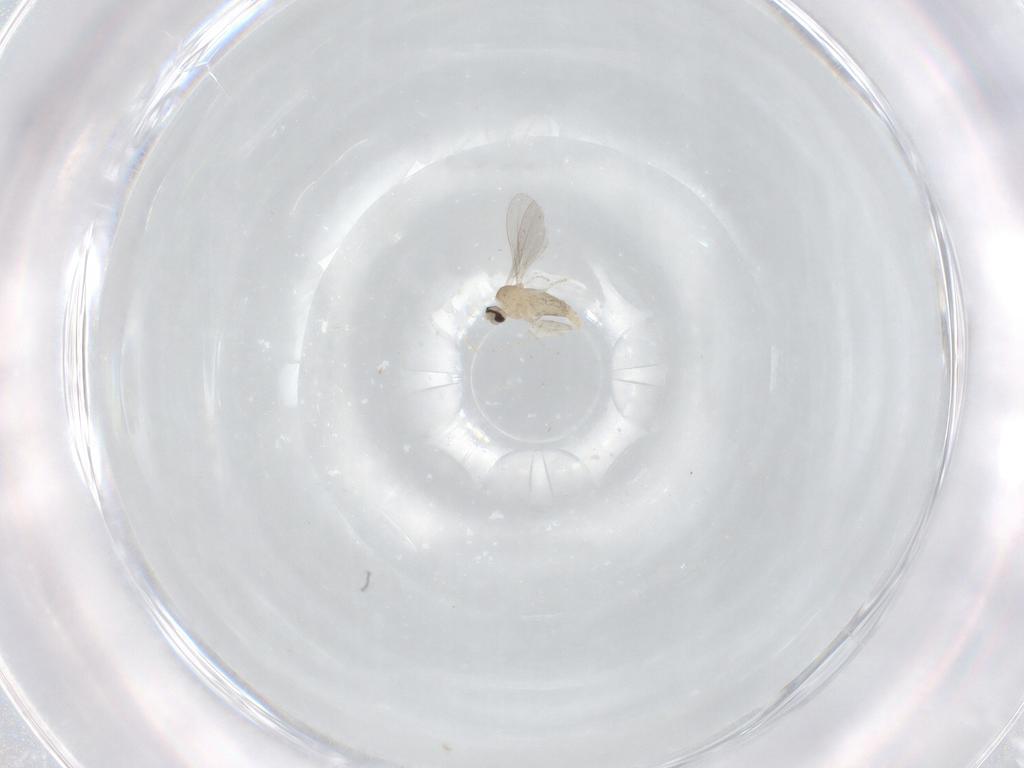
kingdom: Animalia
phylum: Arthropoda
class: Insecta
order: Diptera
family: Cecidomyiidae
